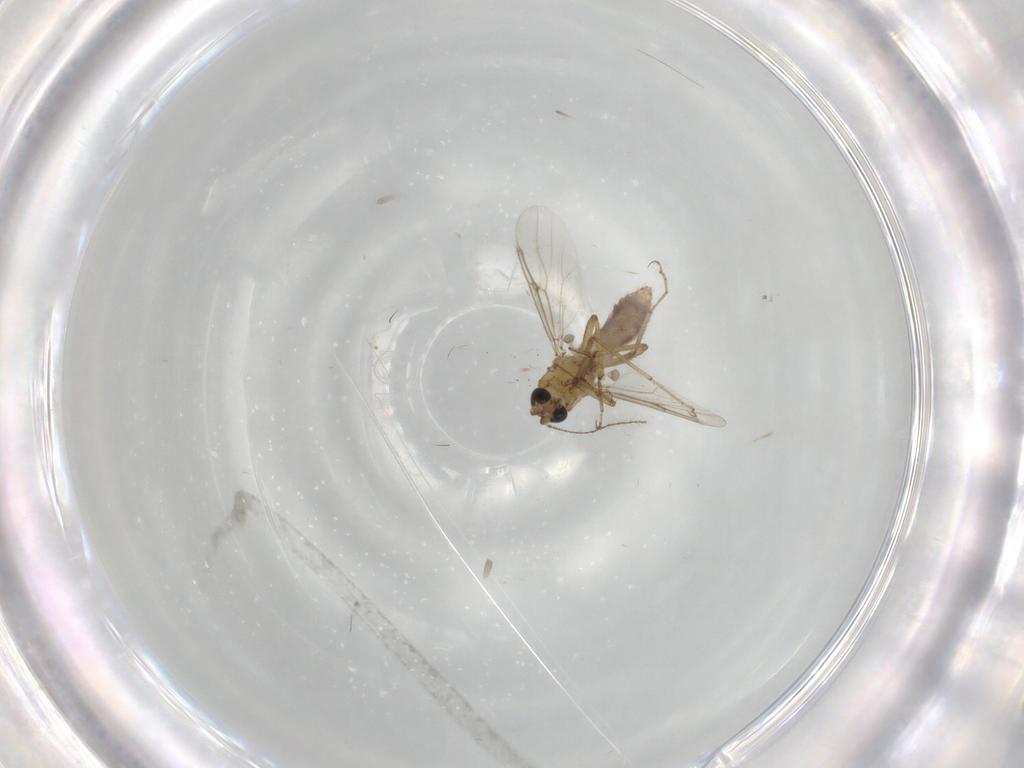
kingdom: Animalia
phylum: Arthropoda
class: Insecta
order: Diptera
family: Ceratopogonidae
